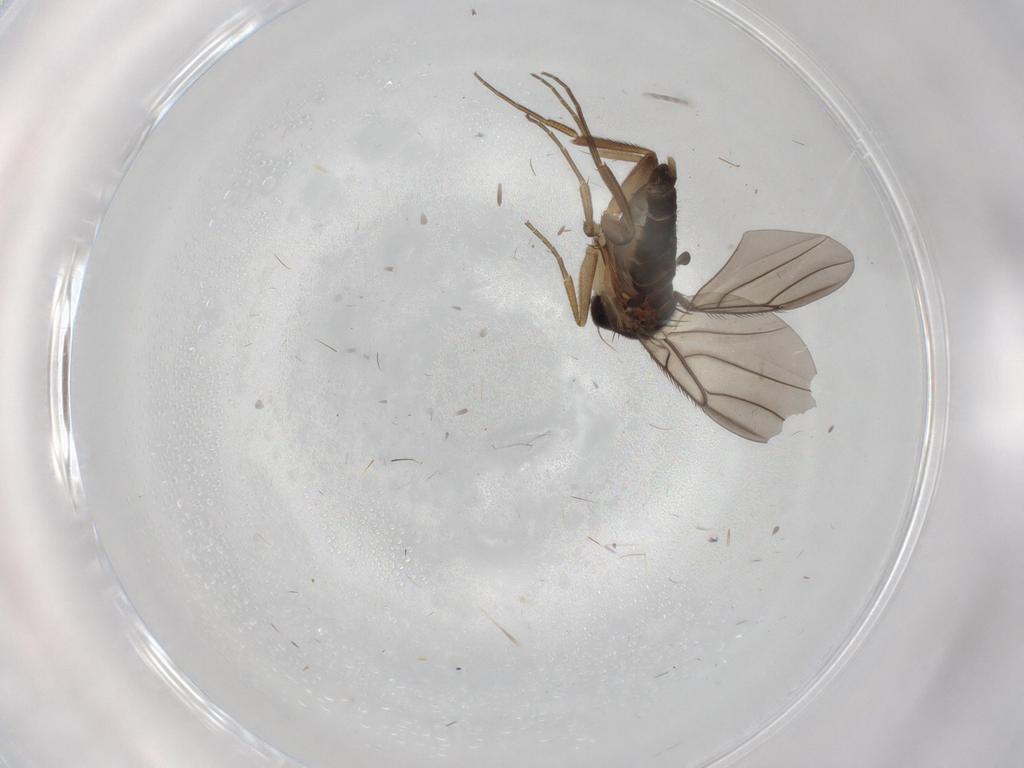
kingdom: Animalia
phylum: Arthropoda
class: Insecta
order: Diptera
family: Phoridae
